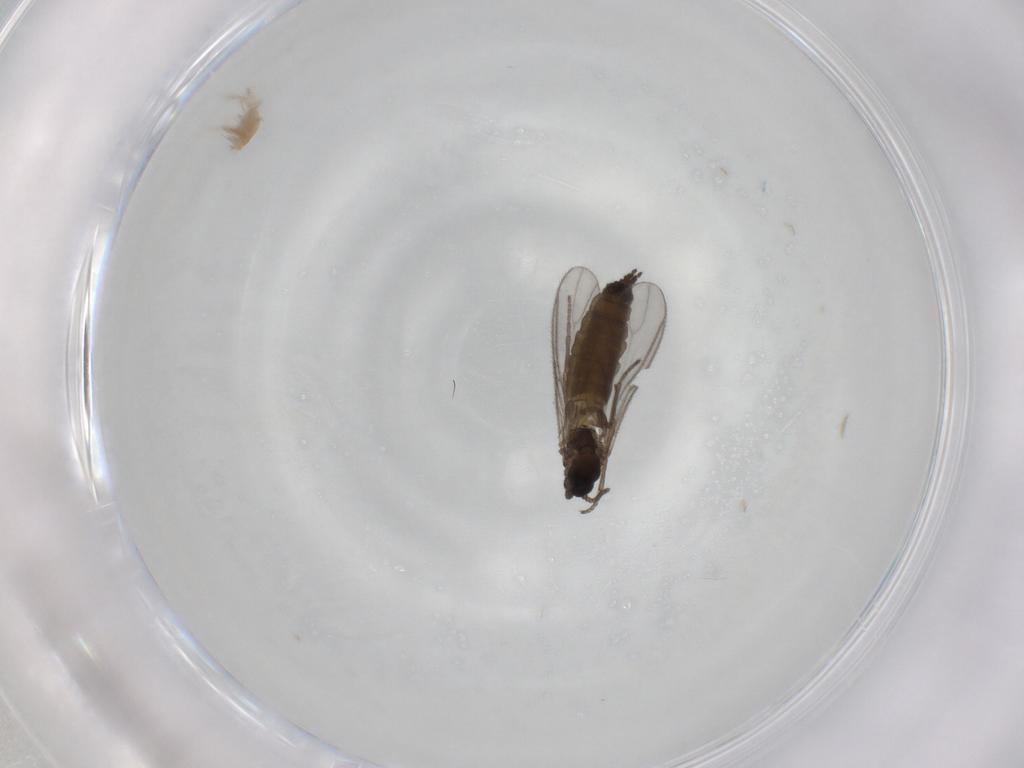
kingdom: Animalia
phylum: Arthropoda
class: Insecta
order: Diptera
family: Sciaridae
